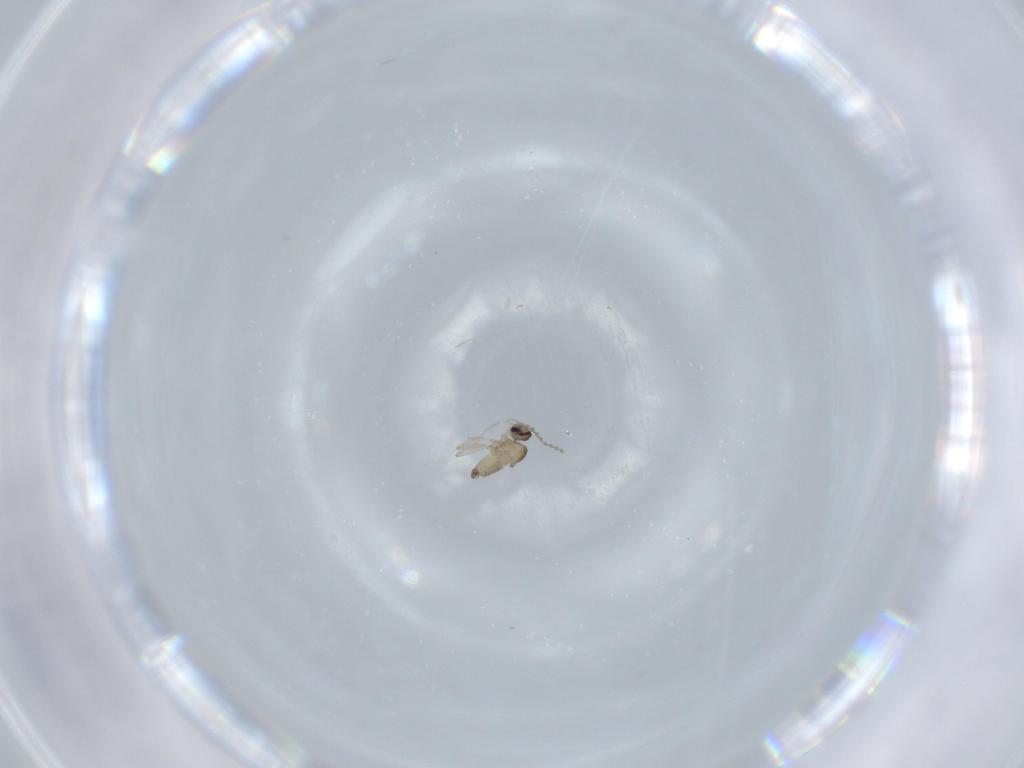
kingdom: Animalia
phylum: Arthropoda
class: Insecta
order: Diptera
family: Cecidomyiidae
